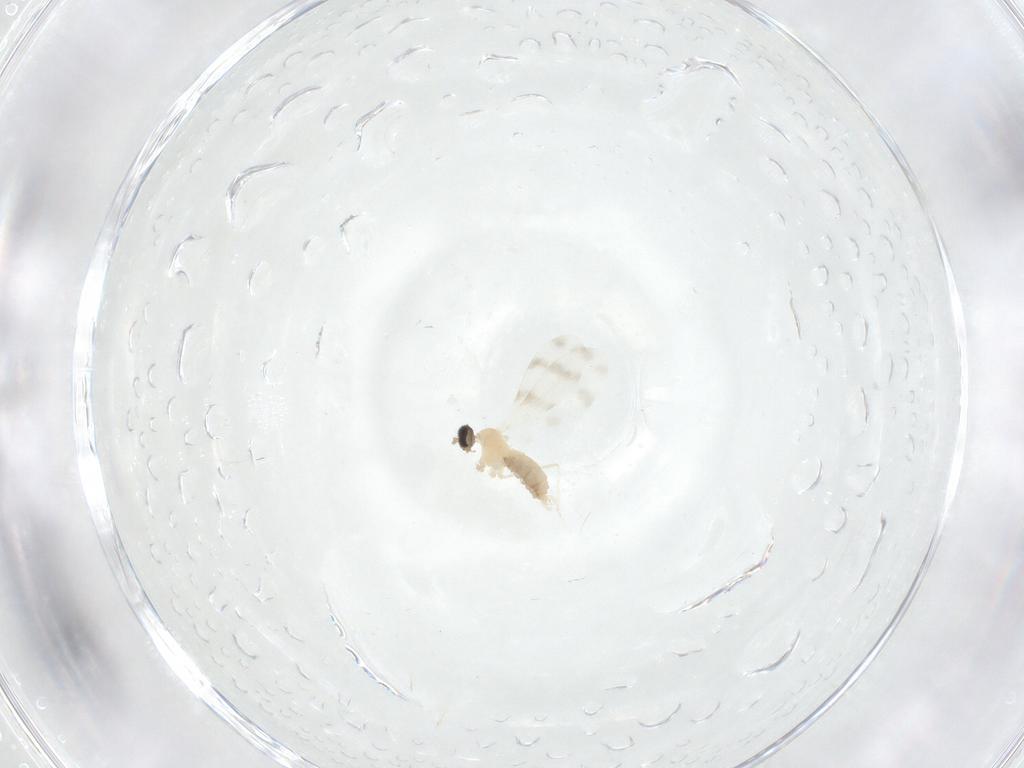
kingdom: Animalia
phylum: Arthropoda
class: Insecta
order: Diptera
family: Cecidomyiidae
